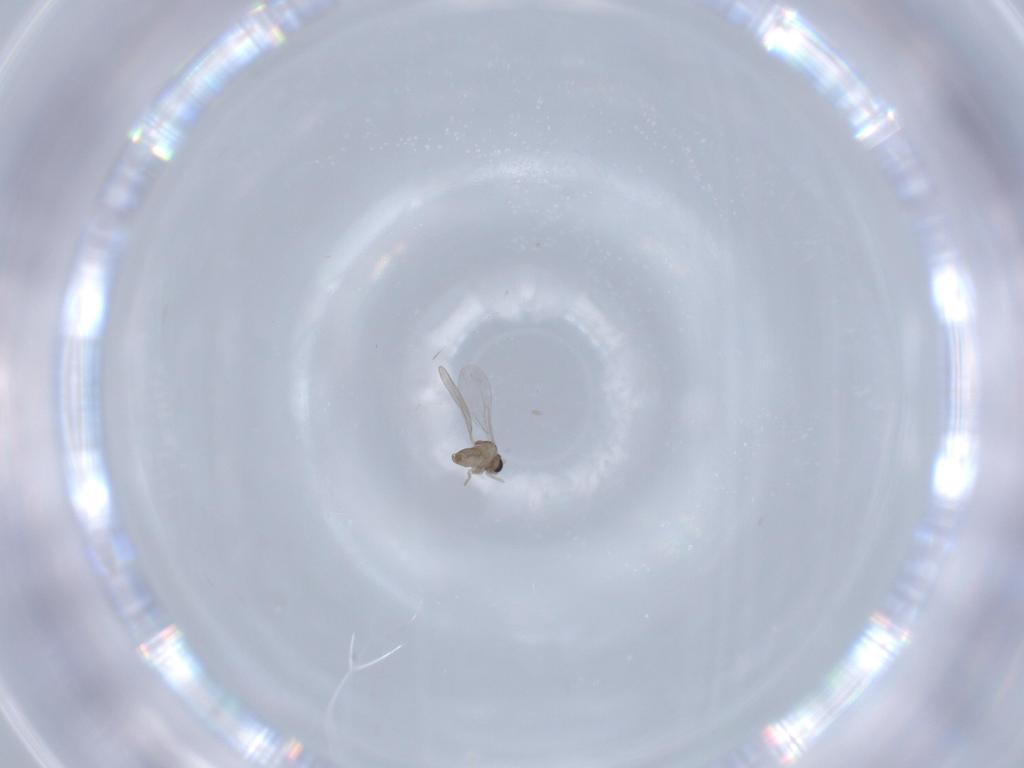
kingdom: Animalia
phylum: Arthropoda
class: Insecta
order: Diptera
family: Cecidomyiidae
